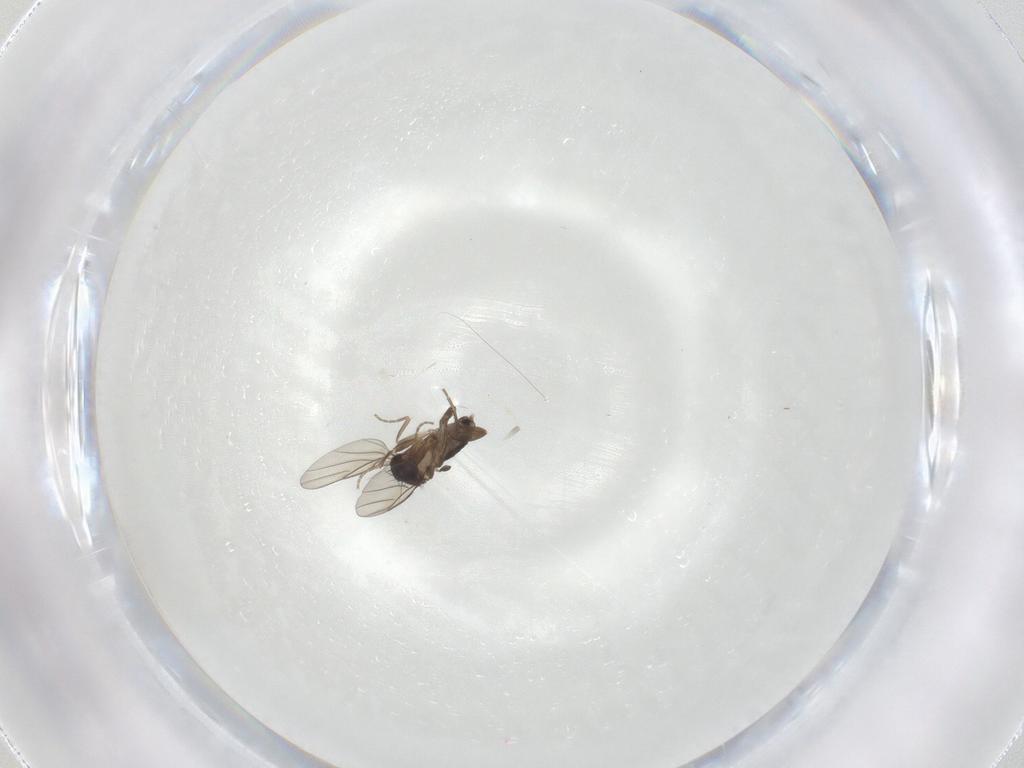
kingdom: Animalia
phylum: Arthropoda
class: Insecta
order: Diptera
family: Phoridae
